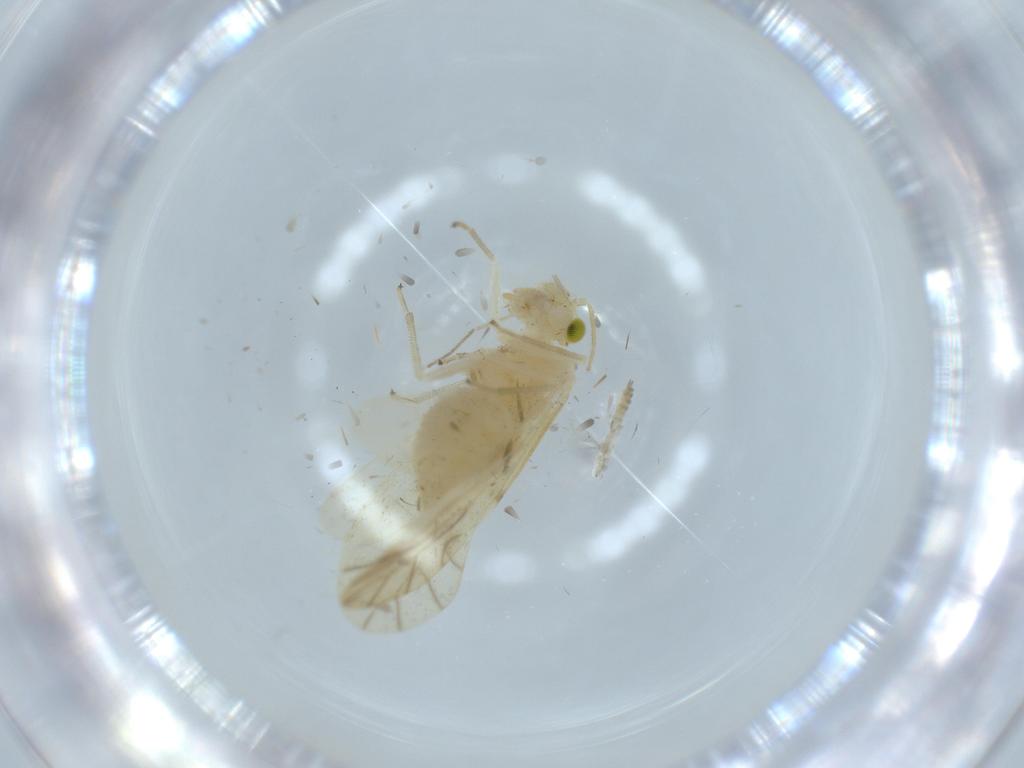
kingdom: Animalia
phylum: Arthropoda
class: Insecta
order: Psocodea
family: Caeciliusidae
